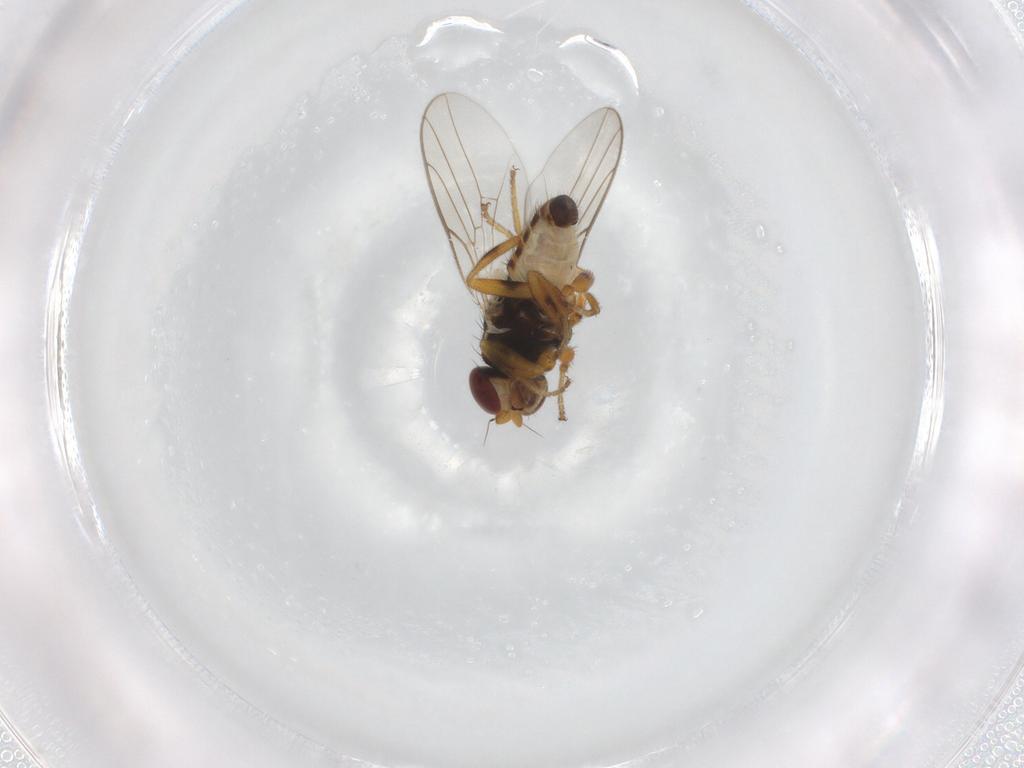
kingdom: Animalia
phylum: Arthropoda
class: Insecta
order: Diptera
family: Chloropidae
